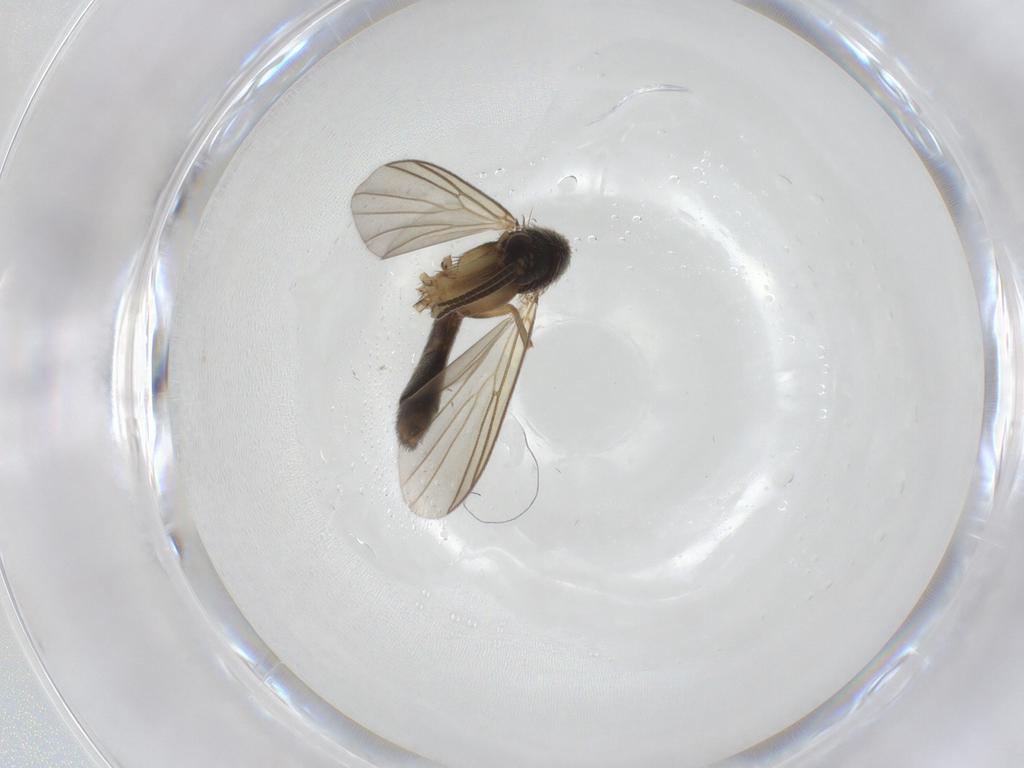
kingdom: Animalia
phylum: Arthropoda
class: Insecta
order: Diptera
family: Mycetophilidae
